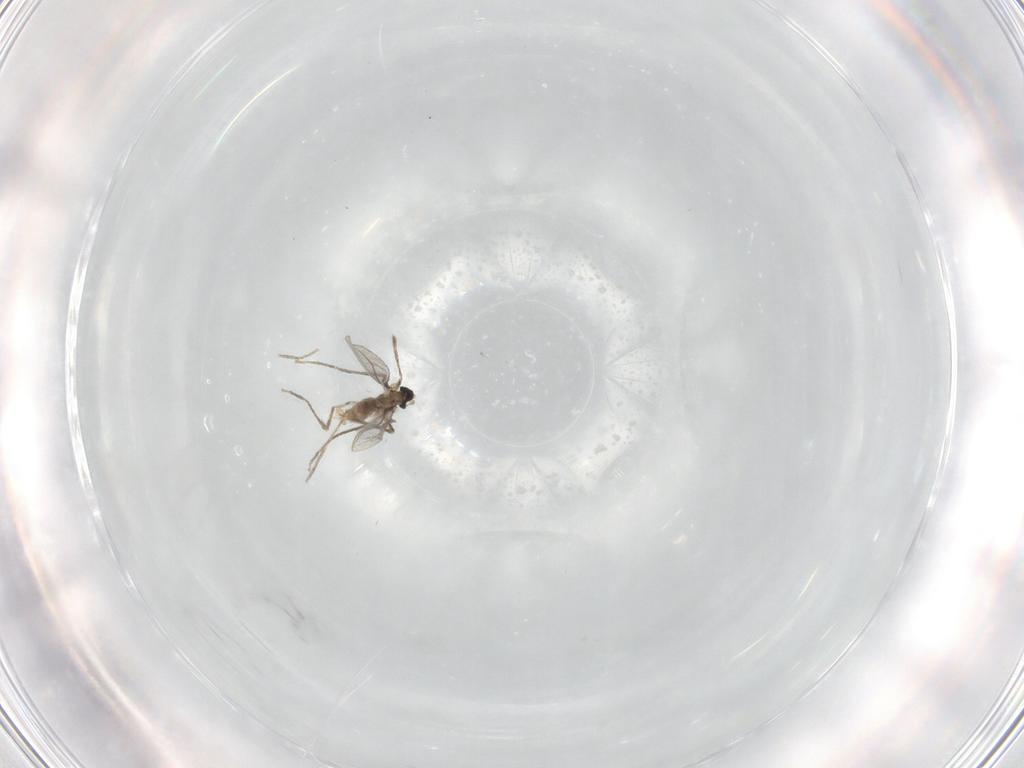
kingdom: Animalia
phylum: Arthropoda
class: Insecta
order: Diptera
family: Cecidomyiidae
